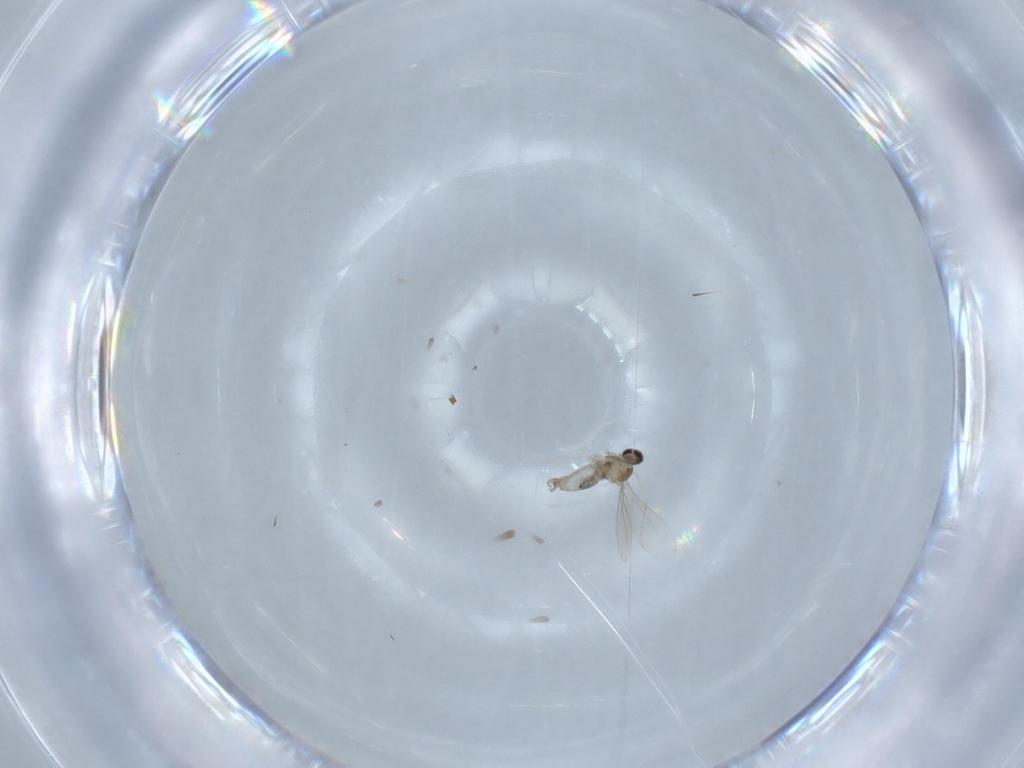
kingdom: Animalia
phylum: Arthropoda
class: Insecta
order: Diptera
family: Cecidomyiidae
